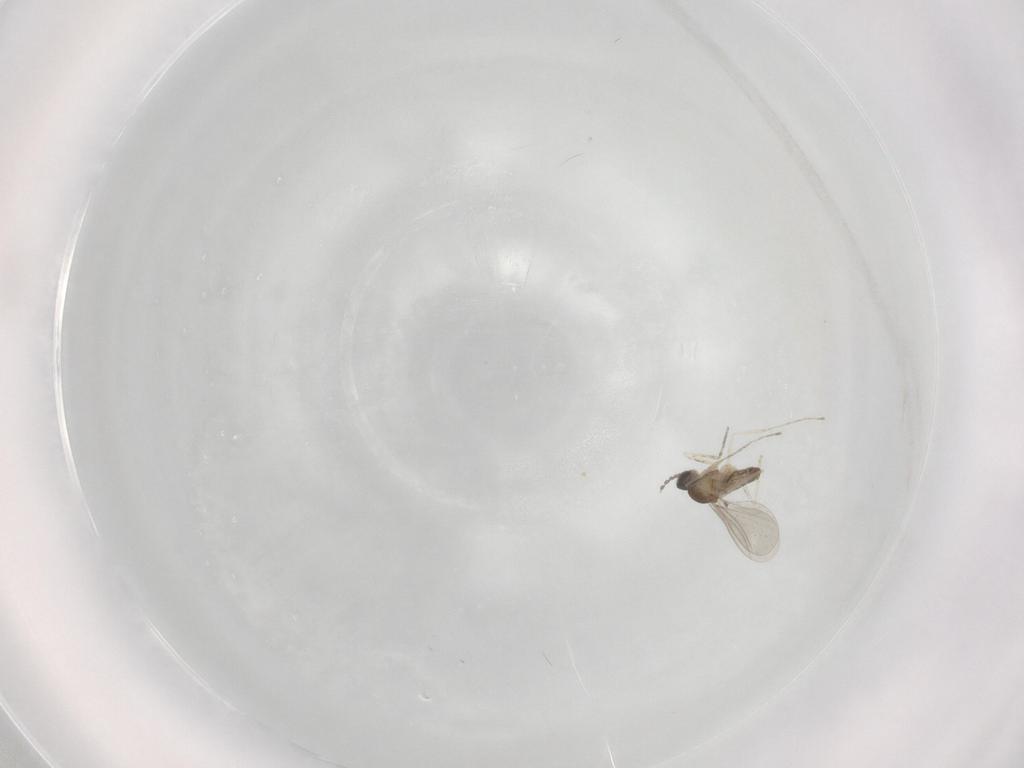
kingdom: Animalia
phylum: Arthropoda
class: Insecta
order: Diptera
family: Cecidomyiidae
